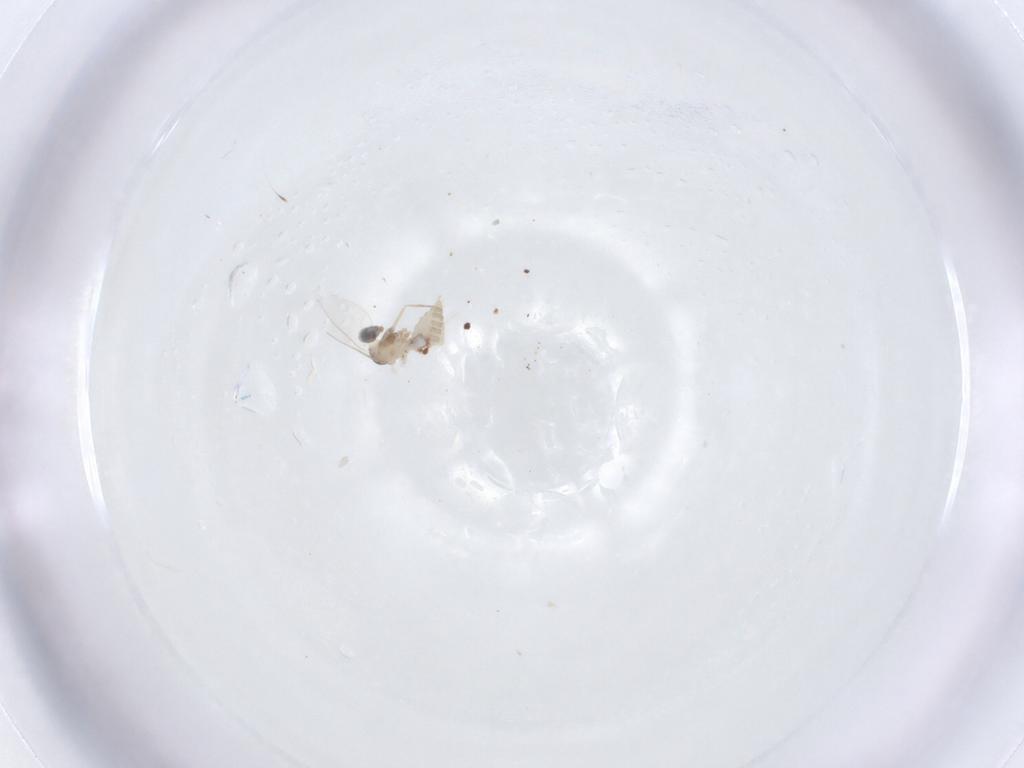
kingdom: Animalia
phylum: Arthropoda
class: Insecta
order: Diptera
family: Cecidomyiidae
